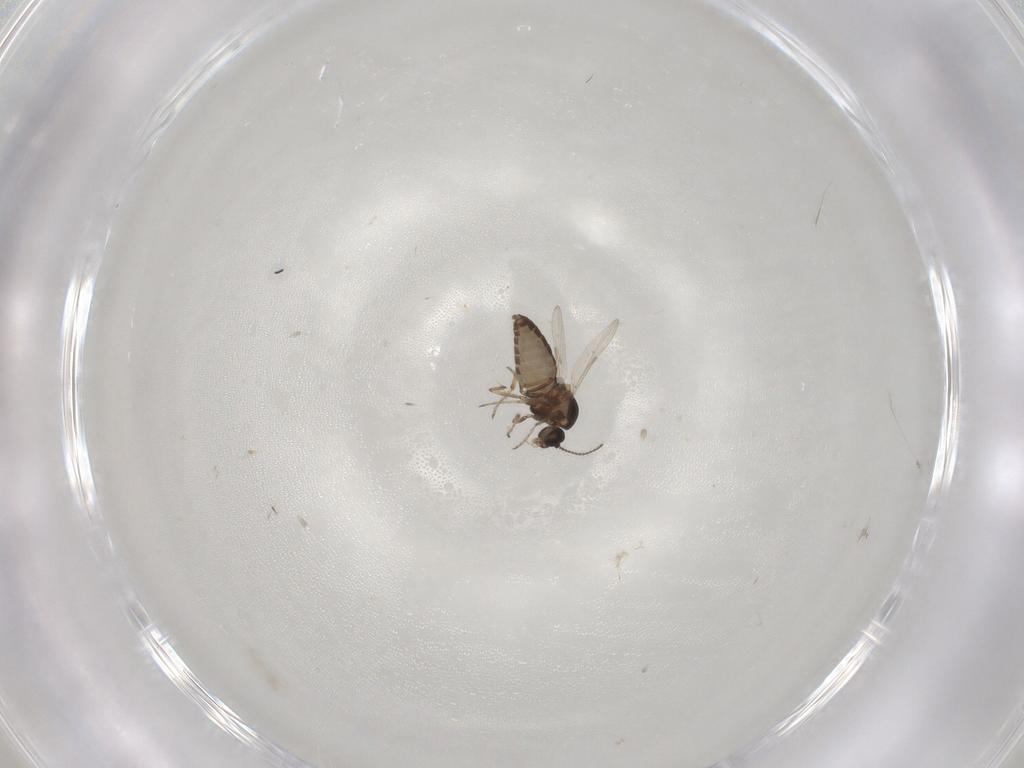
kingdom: Animalia
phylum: Arthropoda
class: Insecta
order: Diptera
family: Ceratopogonidae
